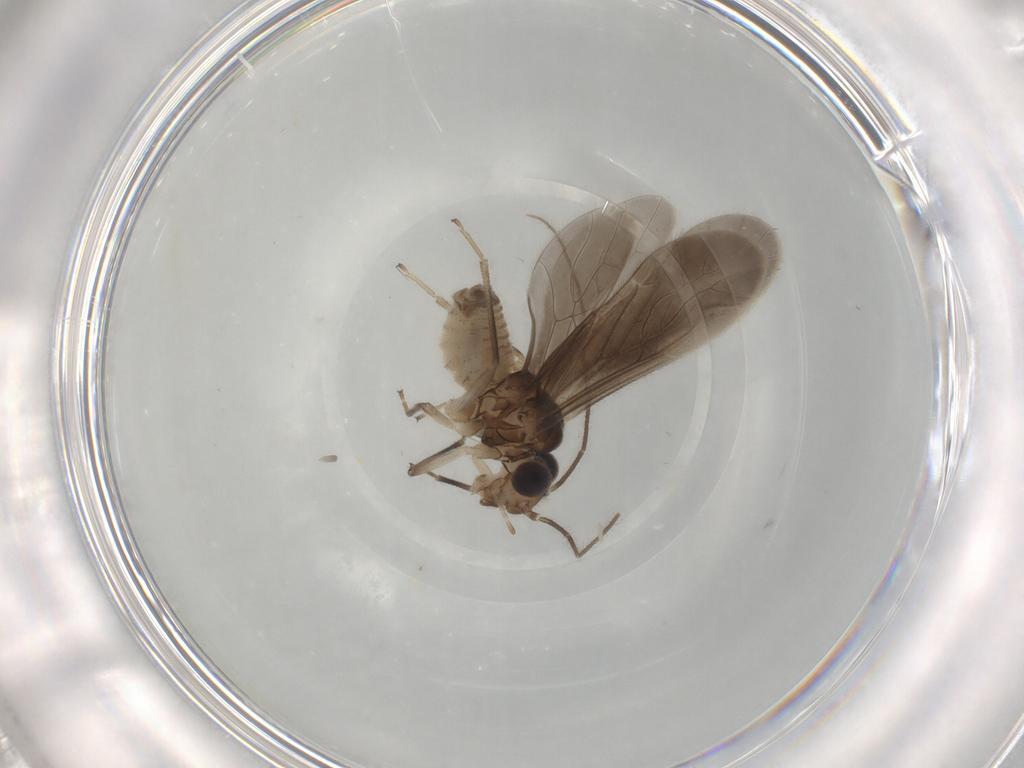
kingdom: Animalia
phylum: Arthropoda
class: Insecta
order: Psocodea
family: Caeciliusidae
